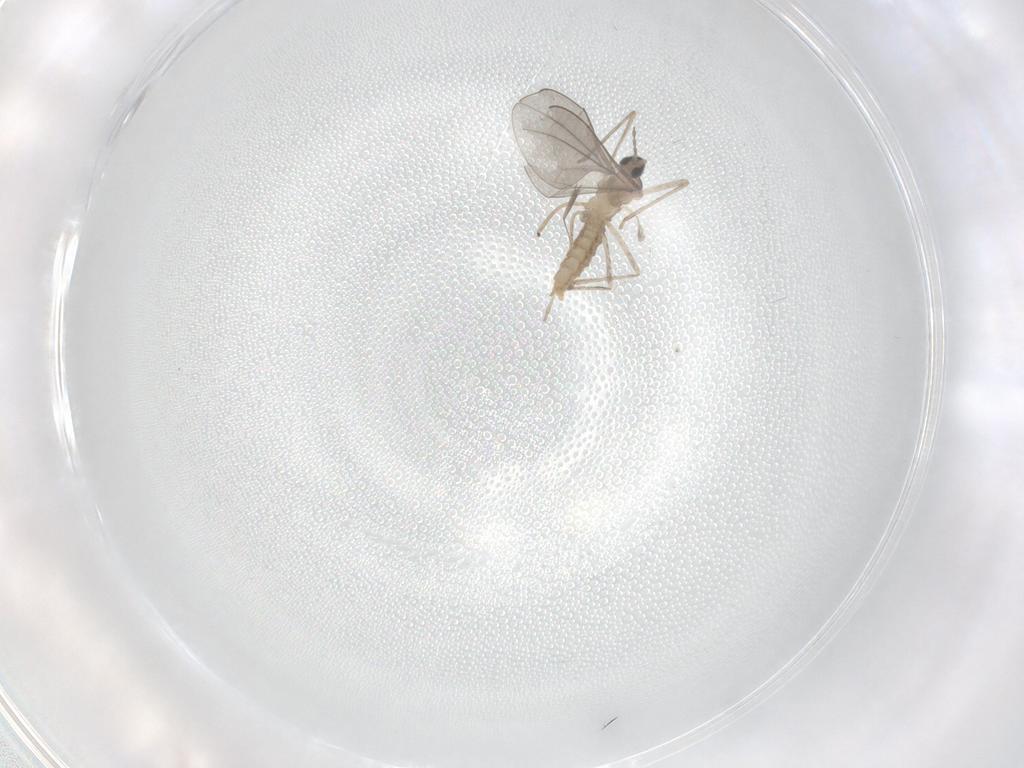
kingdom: Animalia
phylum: Arthropoda
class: Insecta
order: Diptera
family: Cecidomyiidae
